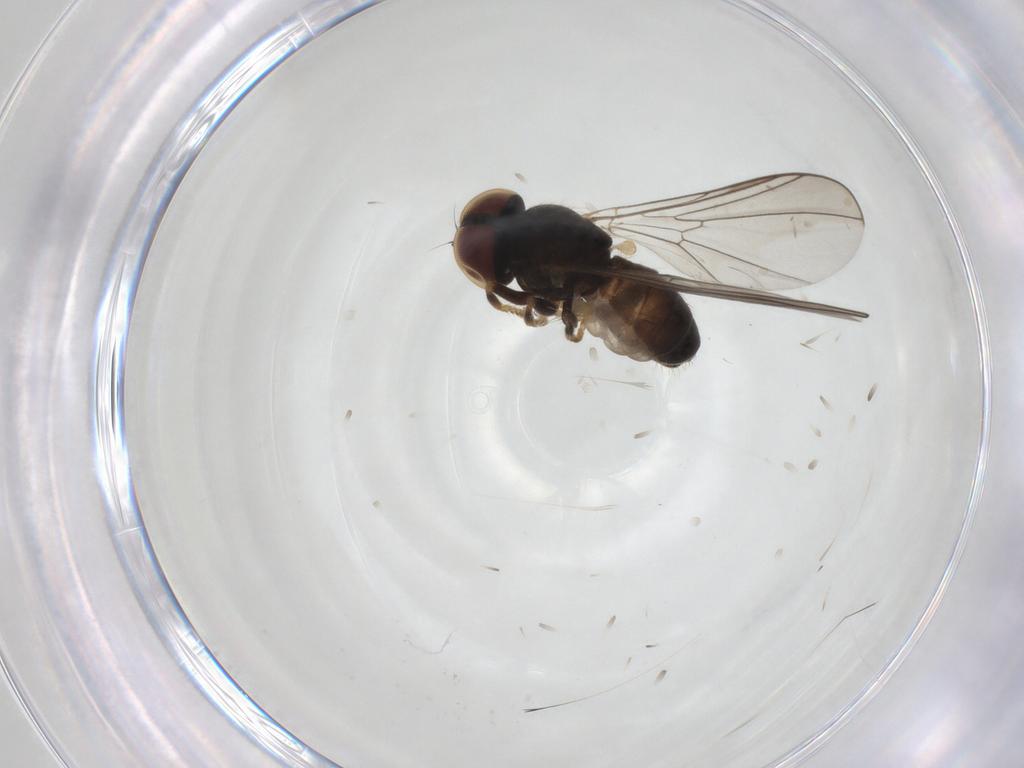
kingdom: Animalia
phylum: Arthropoda
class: Insecta
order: Diptera
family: Pipunculidae
